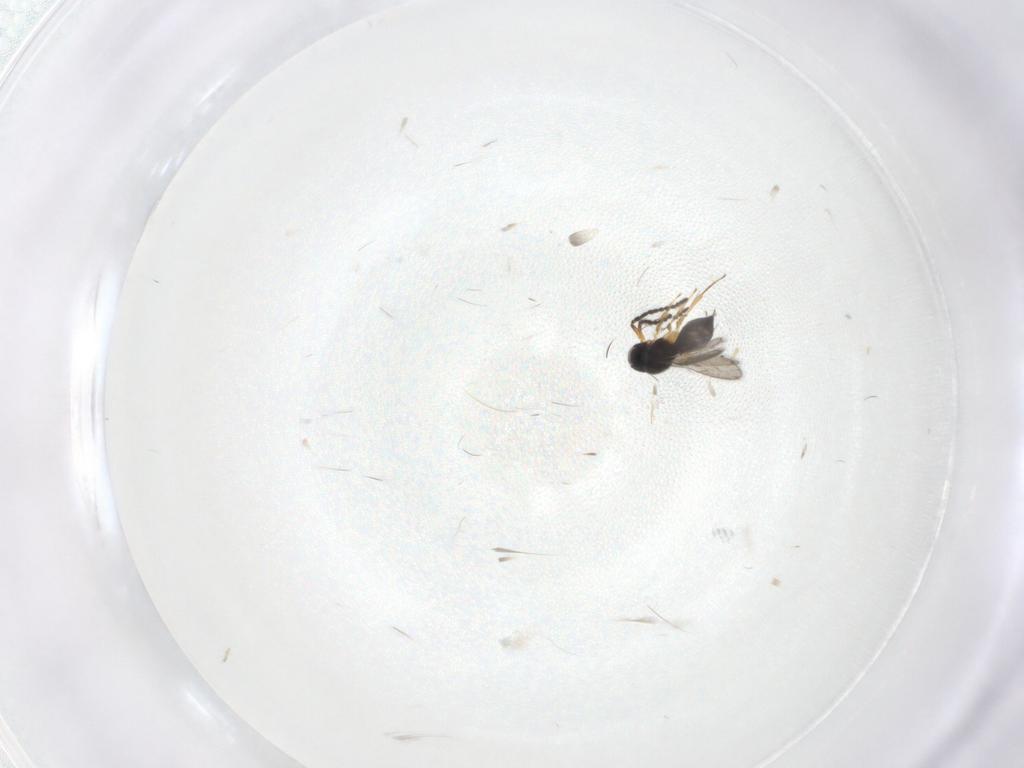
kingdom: Animalia
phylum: Arthropoda
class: Insecta
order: Hymenoptera
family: Scelionidae
